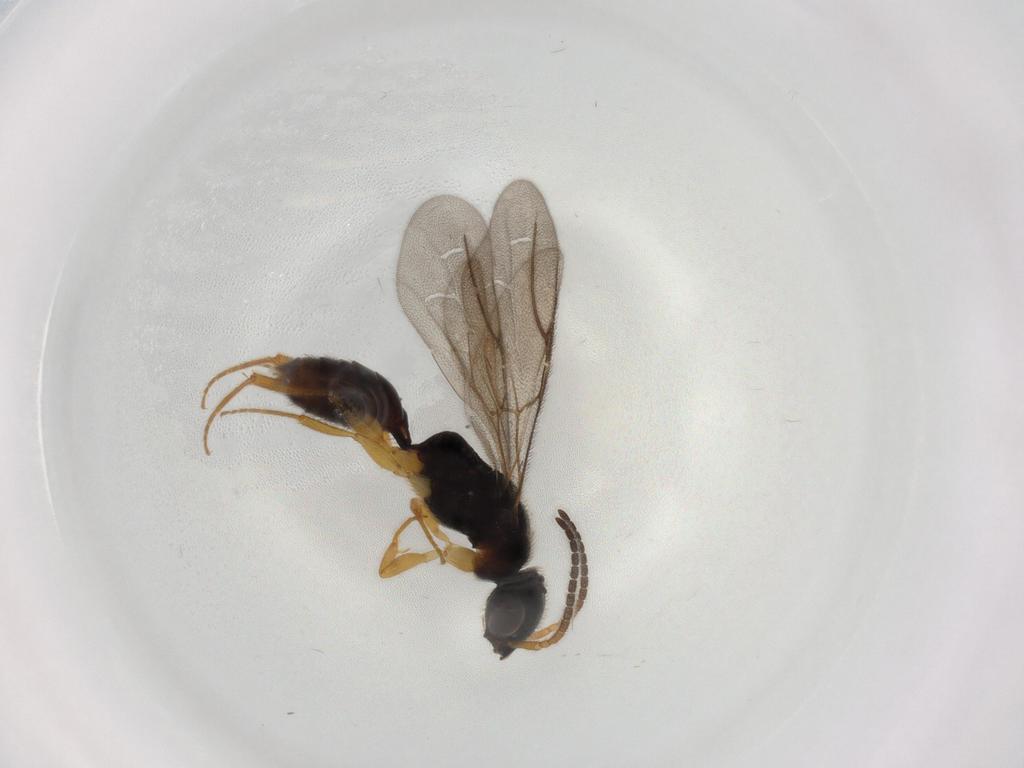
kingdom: Animalia
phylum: Arthropoda
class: Insecta
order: Hymenoptera
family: Bethylidae
